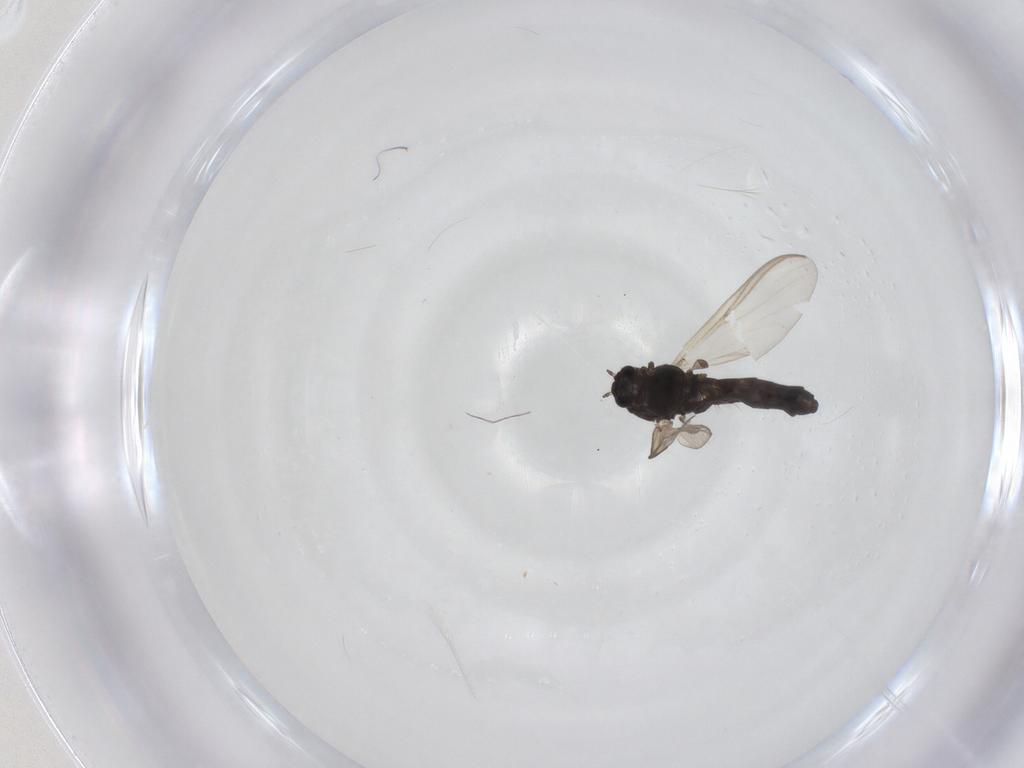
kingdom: Animalia
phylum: Arthropoda
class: Insecta
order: Diptera
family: Chironomidae
